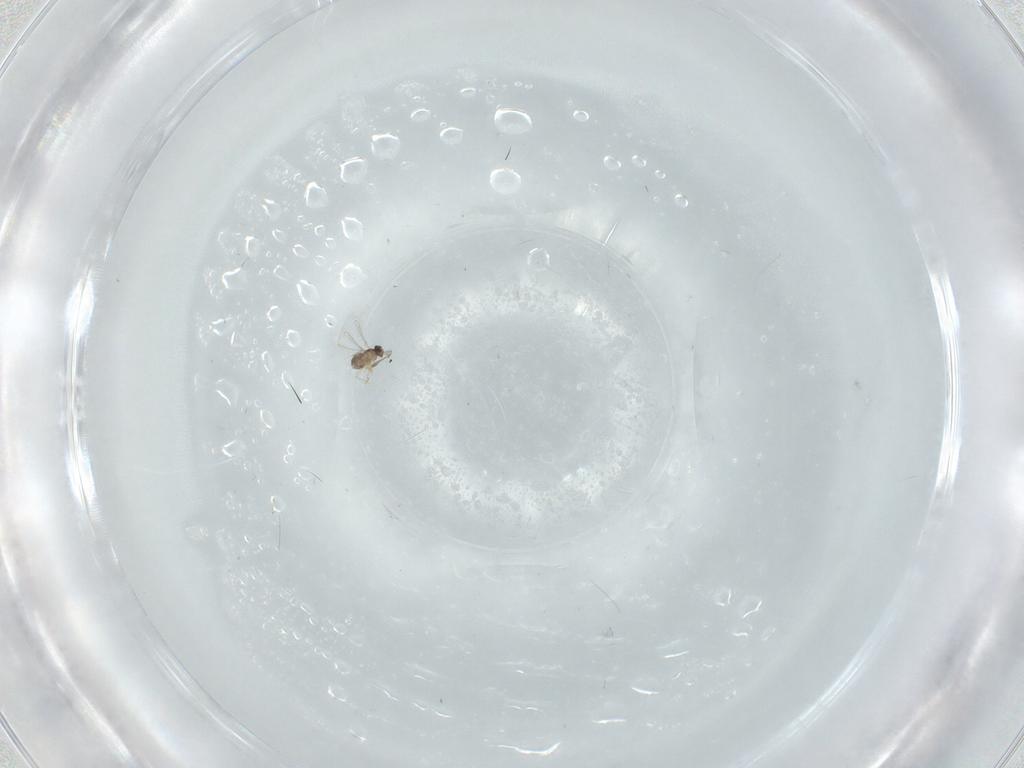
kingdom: Animalia
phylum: Arthropoda
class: Insecta
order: Hymenoptera
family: Mymaridae
